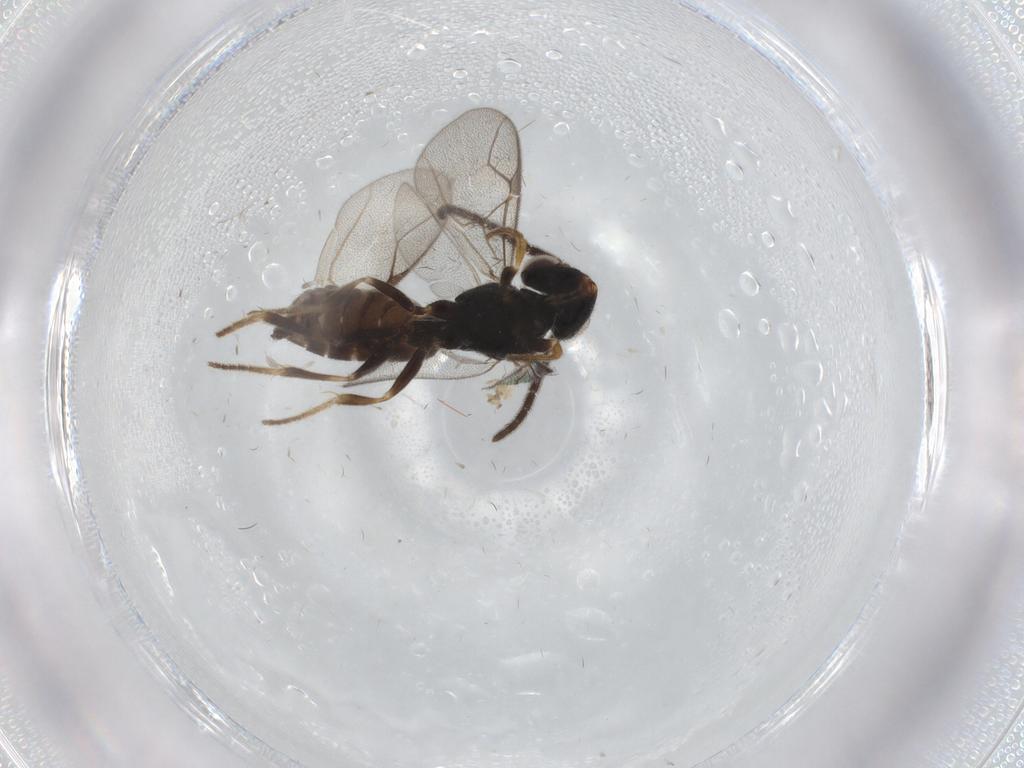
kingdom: Animalia
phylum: Arthropoda
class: Insecta
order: Hymenoptera
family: Dryinidae
